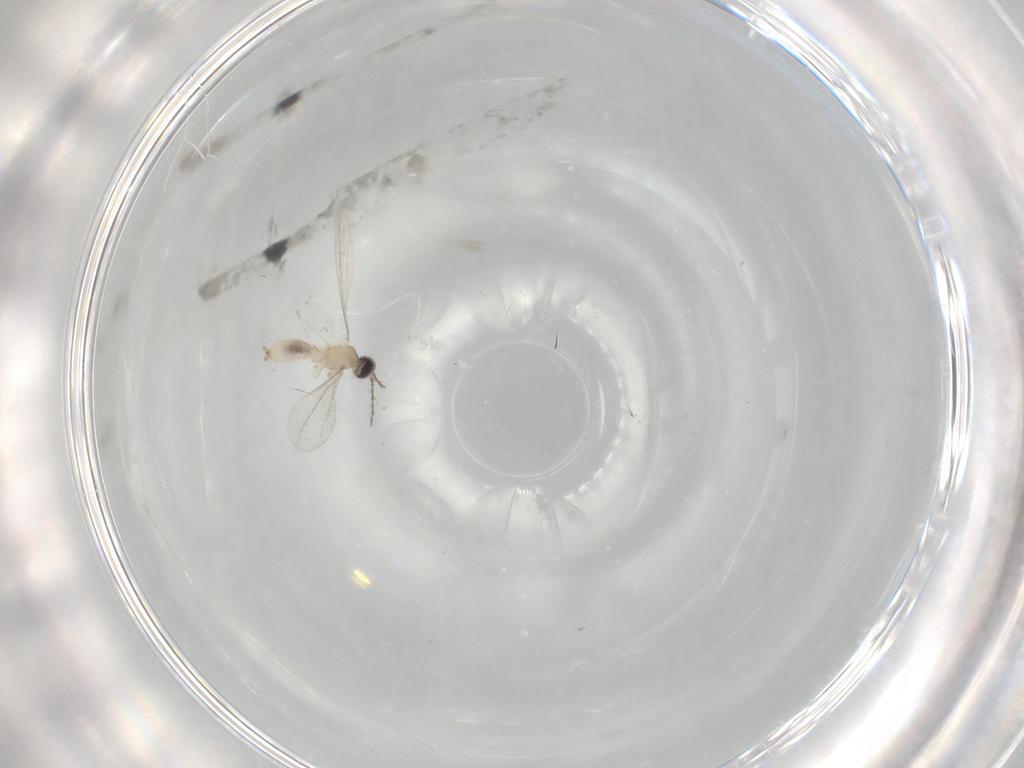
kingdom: Animalia
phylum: Arthropoda
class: Insecta
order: Diptera
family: Cecidomyiidae
